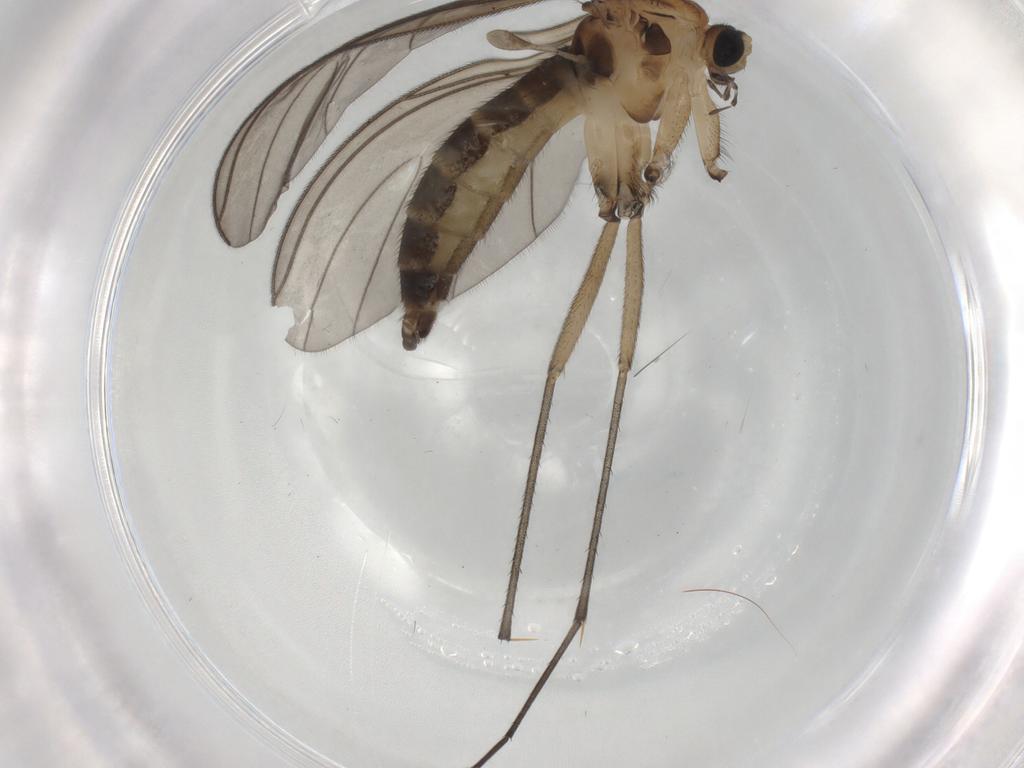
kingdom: Animalia
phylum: Arthropoda
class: Insecta
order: Diptera
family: Sciaridae
